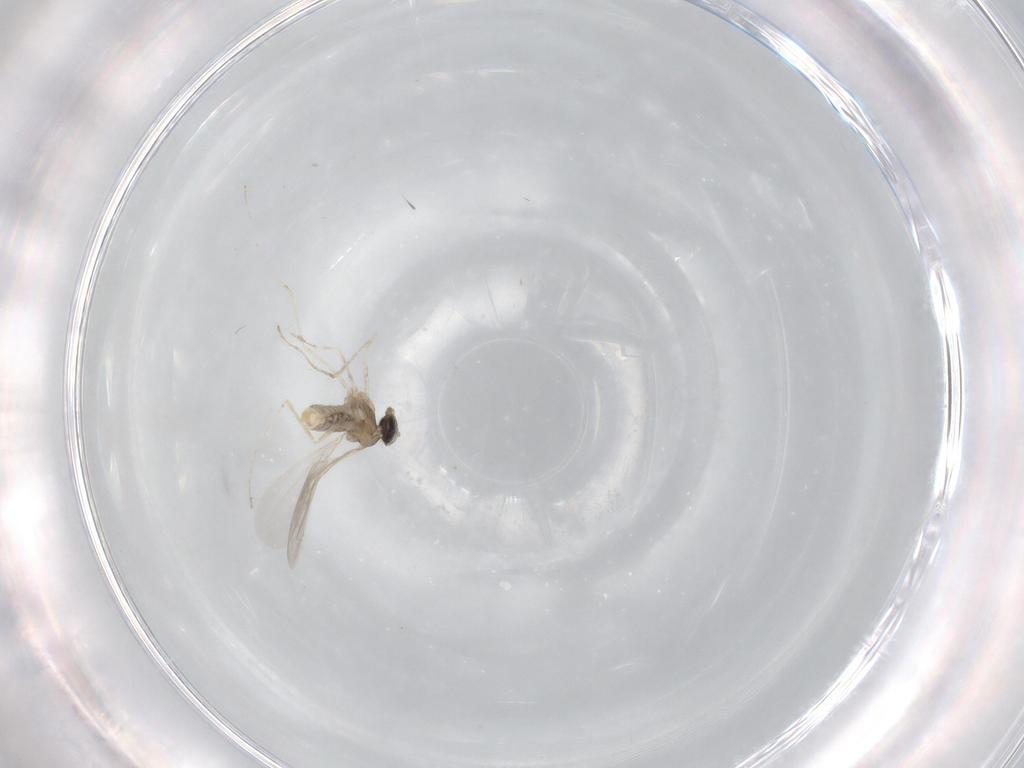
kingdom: Animalia
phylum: Arthropoda
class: Insecta
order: Diptera
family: Cecidomyiidae
